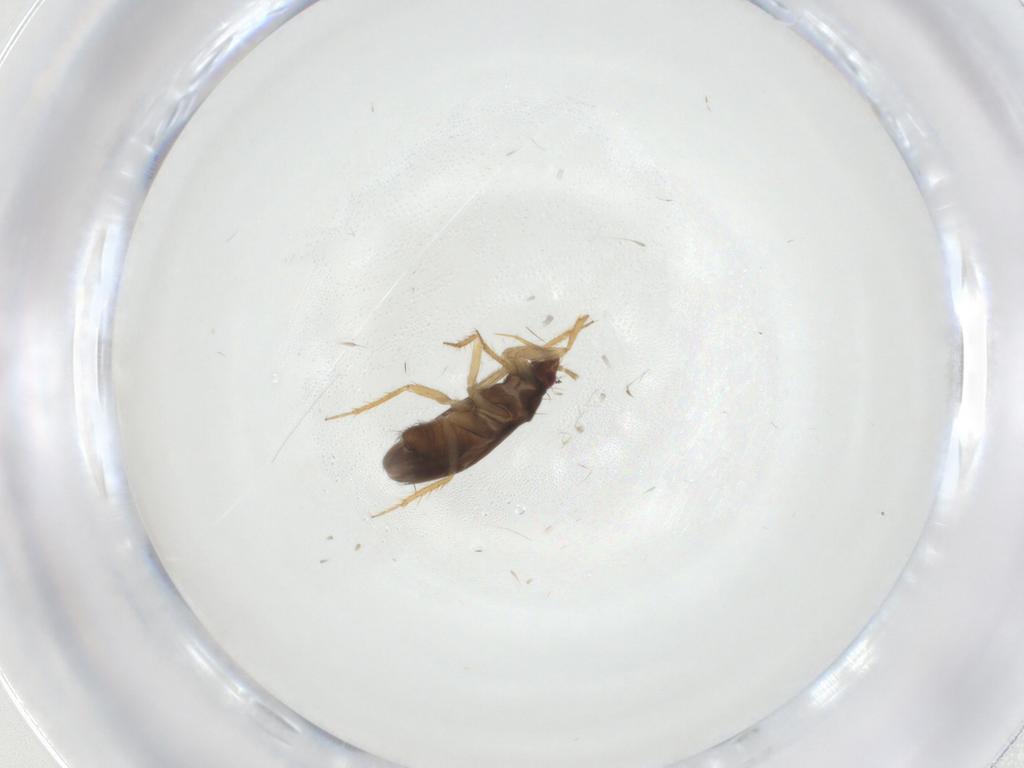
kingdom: Animalia
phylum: Arthropoda
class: Insecta
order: Hemiptera
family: Ceratocombidae
